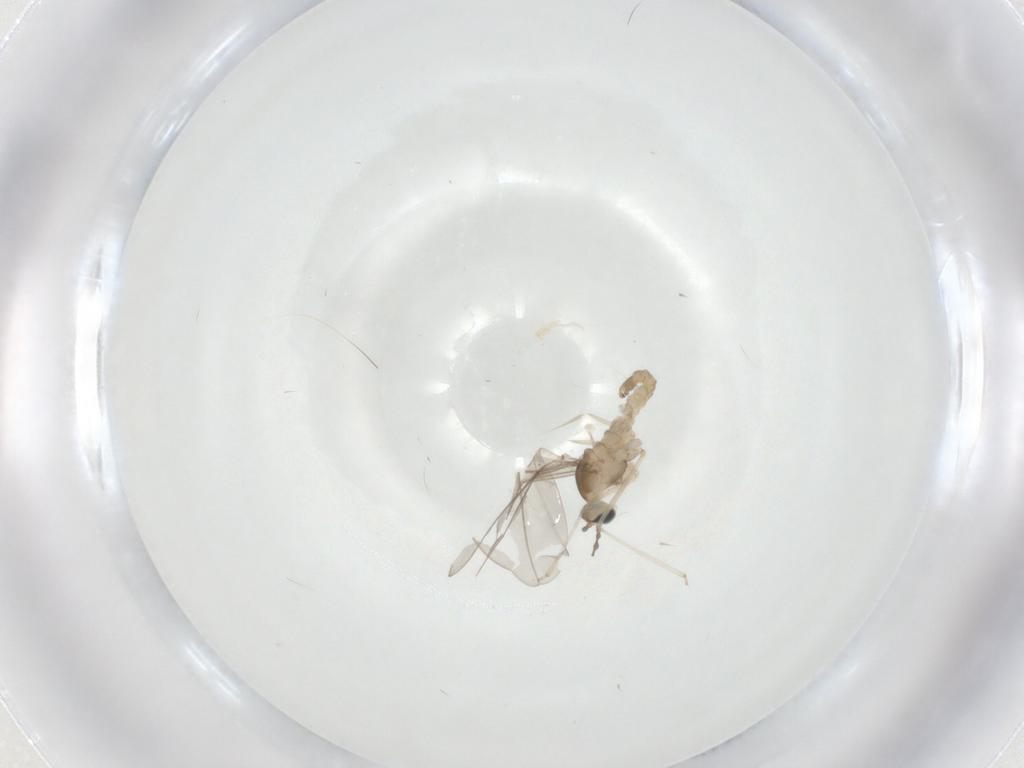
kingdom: Animalia
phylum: Arthropoda
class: Insecta
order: Diptera
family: Cecidomyiidae
